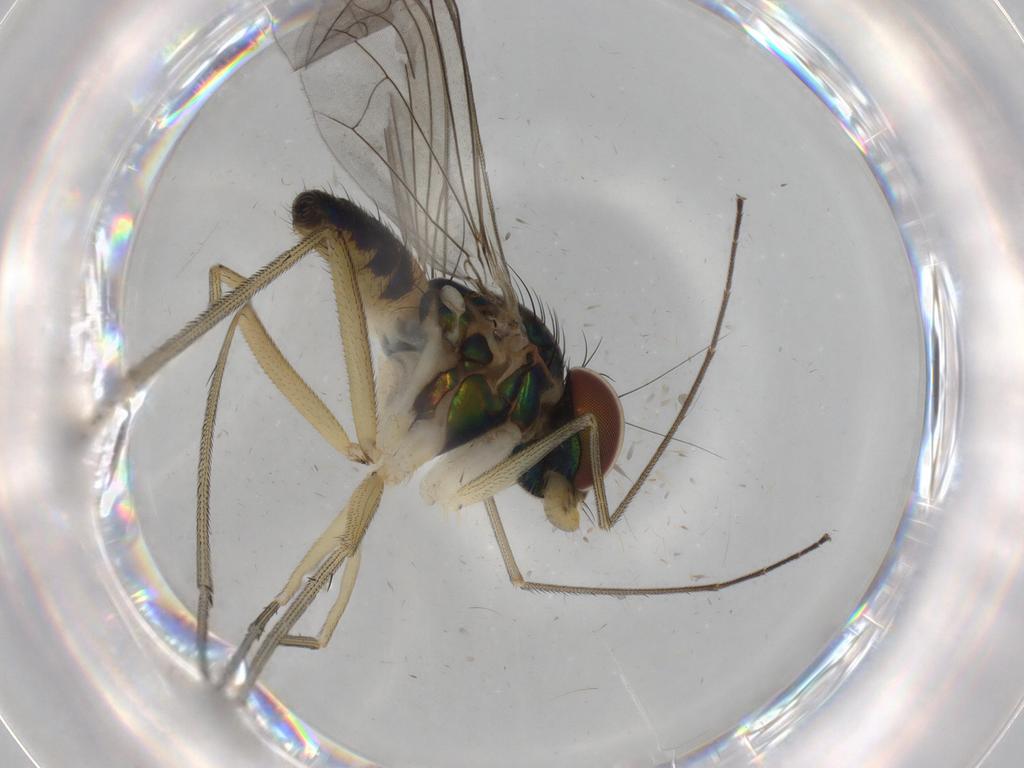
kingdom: Animalia
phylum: Arthropoda
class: Insecta
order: Diptera
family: Dolichopodidae
